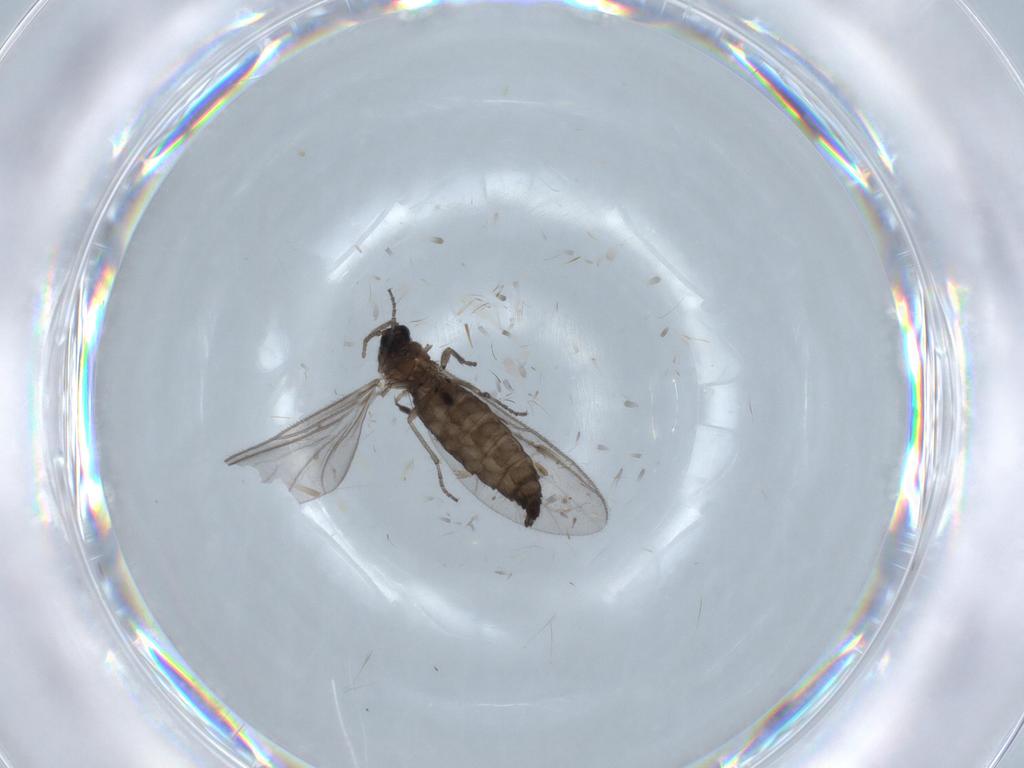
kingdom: Animalia
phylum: Arthropoda
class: Insecta
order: Diptera
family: Sciaridae
